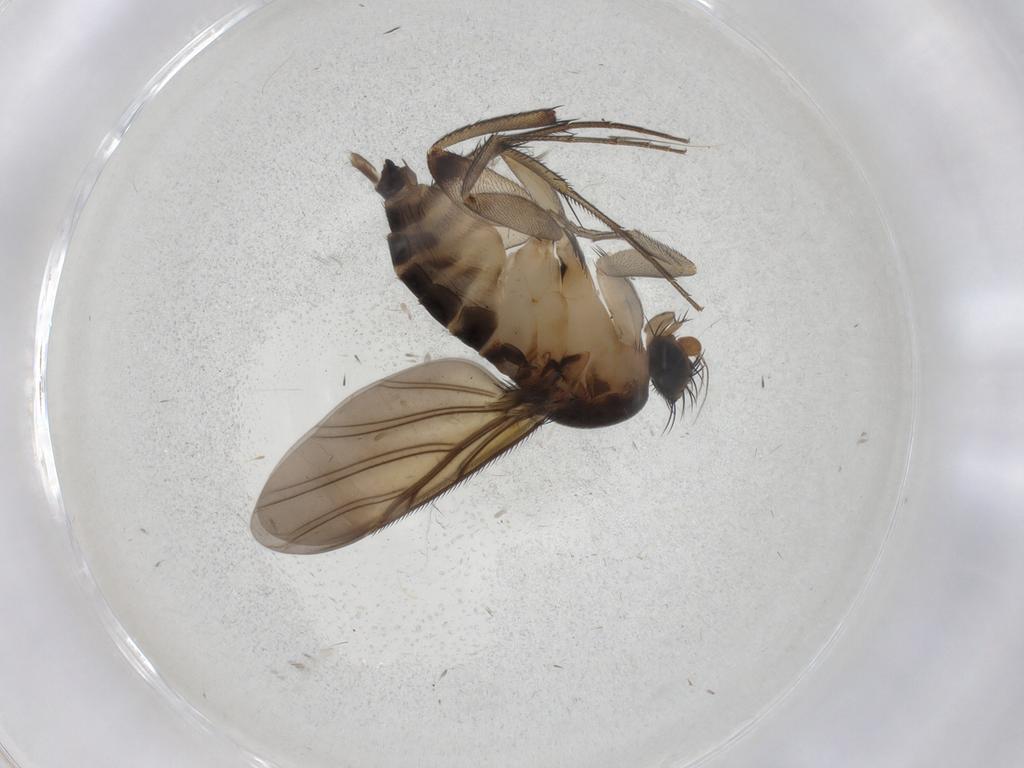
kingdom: Animalia
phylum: Arthropoda
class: Insecta
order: Diptera
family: Phoridae
